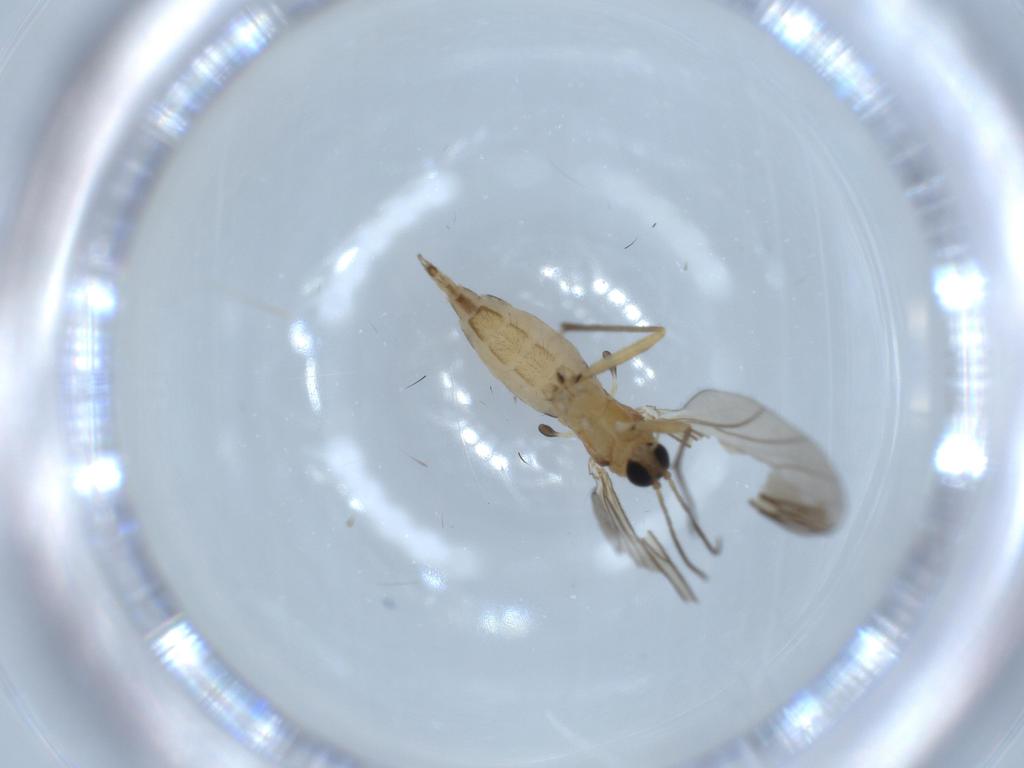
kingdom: Animalia
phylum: Arthropoda
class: Insecta
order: Diptera
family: Sciaridae
